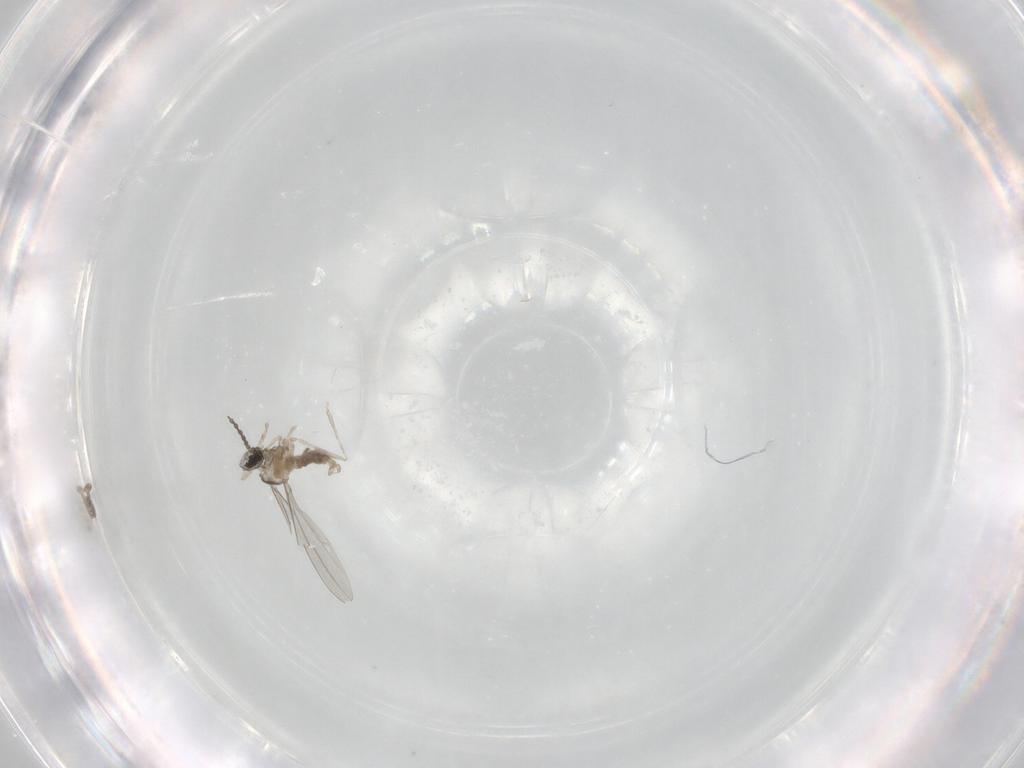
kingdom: Animalia
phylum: Arthropoda
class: Insecta
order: Diptera
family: Cecidomyiidae
